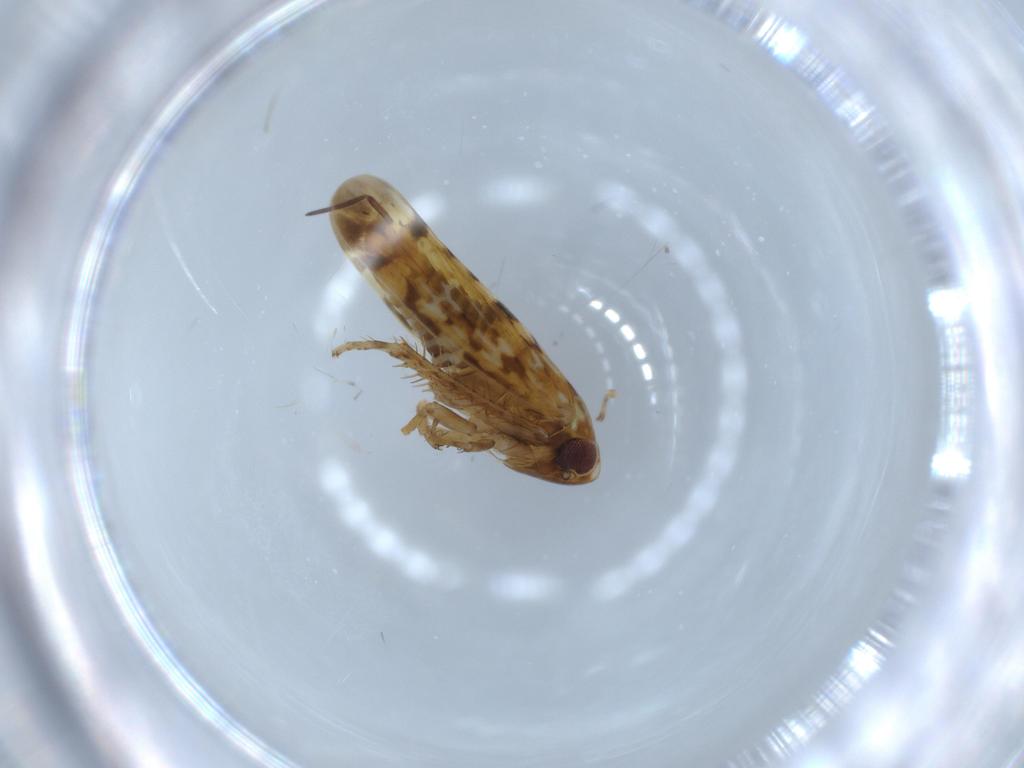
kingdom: Animalia
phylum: Arthropoda
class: Insecta
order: Hemiptera
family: Cicadellidae
